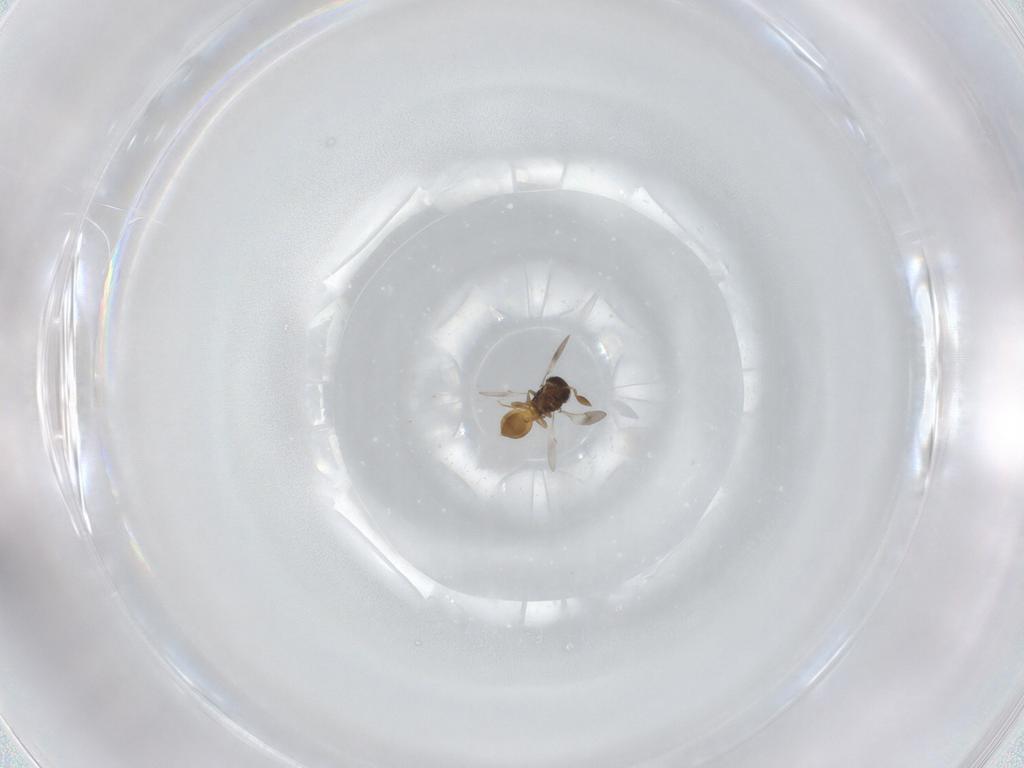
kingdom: Animalia
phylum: Arthropoda
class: Insecta
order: Hymenoptera
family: Scelionidae
